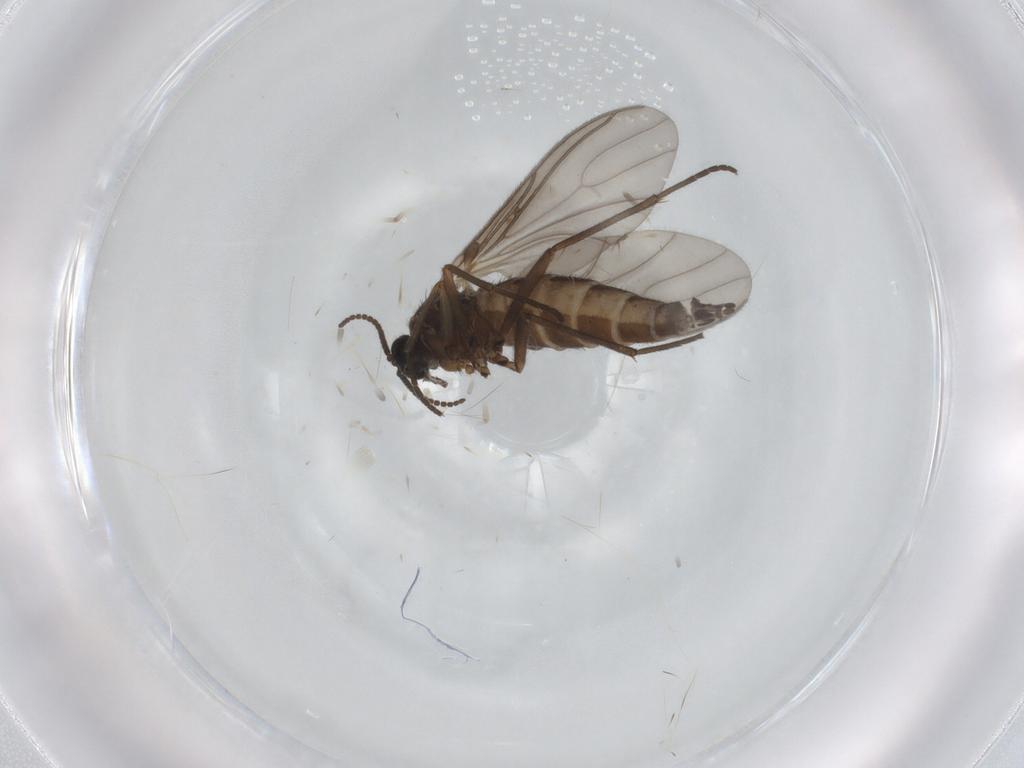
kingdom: Animalia
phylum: Arthropoda
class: Insecta
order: Diptera
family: Sciaridae
